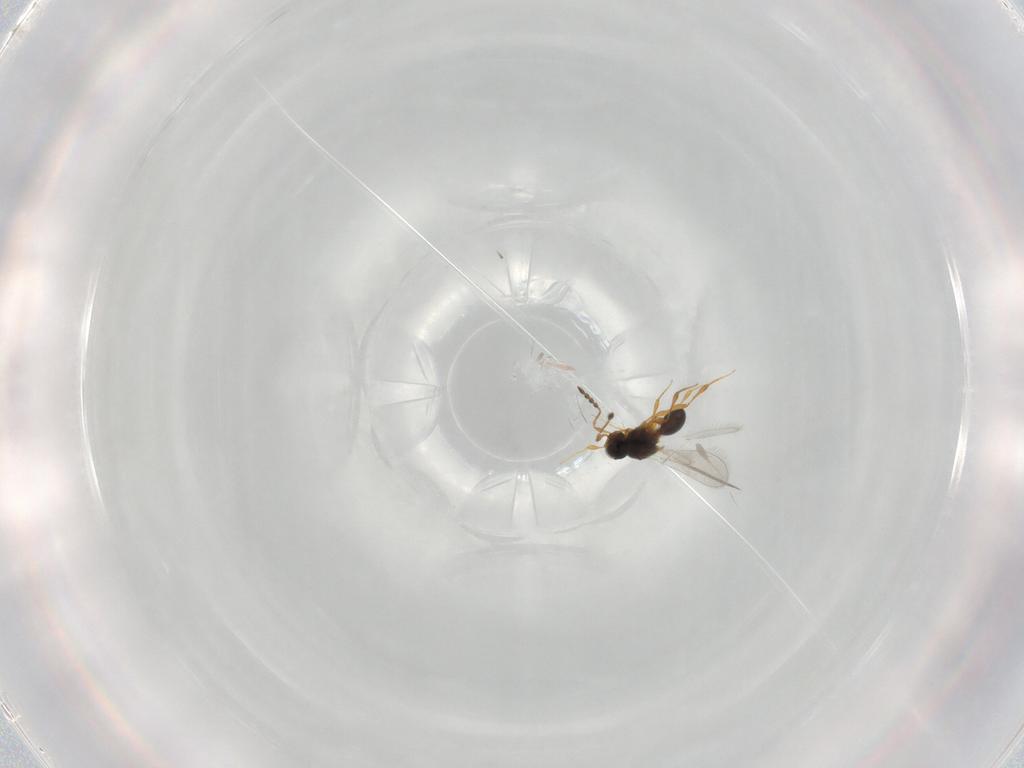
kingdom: Animalia
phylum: Arthropoda
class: Insecta
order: Hymenoptera
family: Platygastridae
